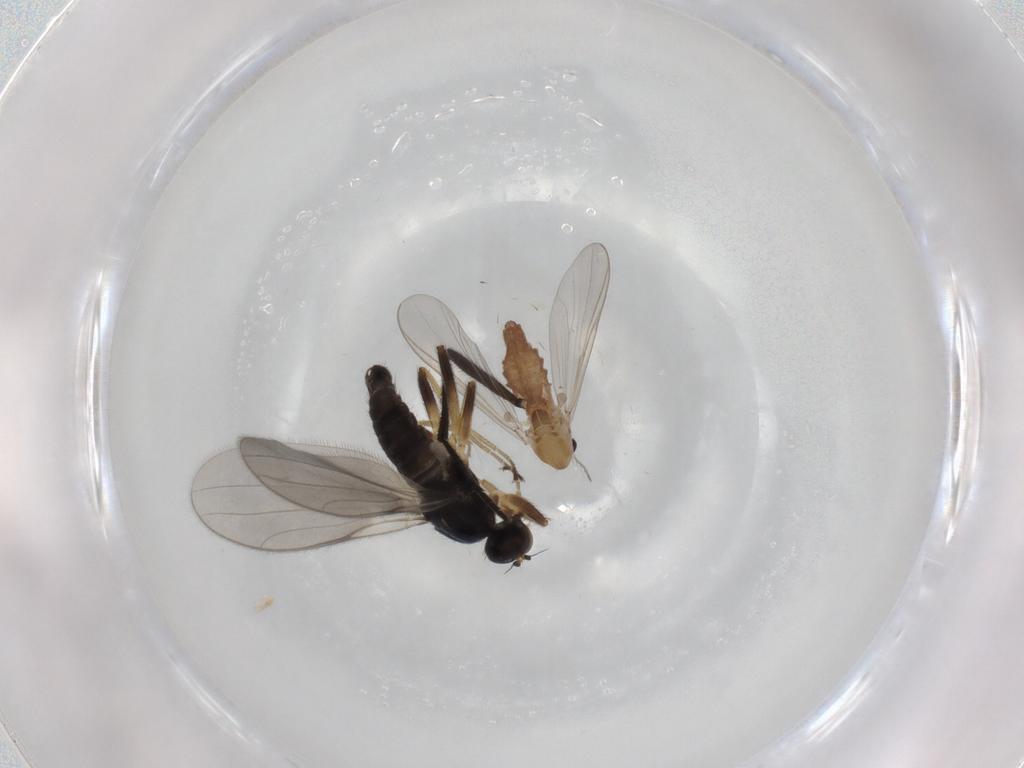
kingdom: Animalia
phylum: Arthropoda
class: Insecta
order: Diptera
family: Hybotidae
